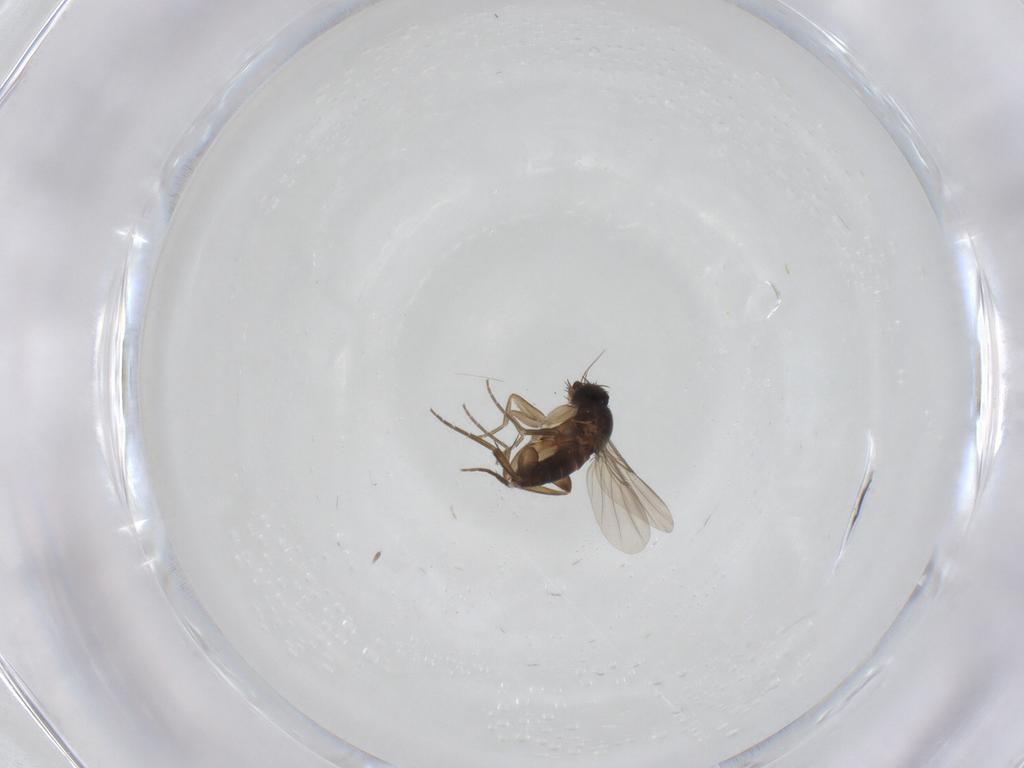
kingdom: Animalia
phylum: Arthropoda
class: Insecta
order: Diptera
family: Phoridae
